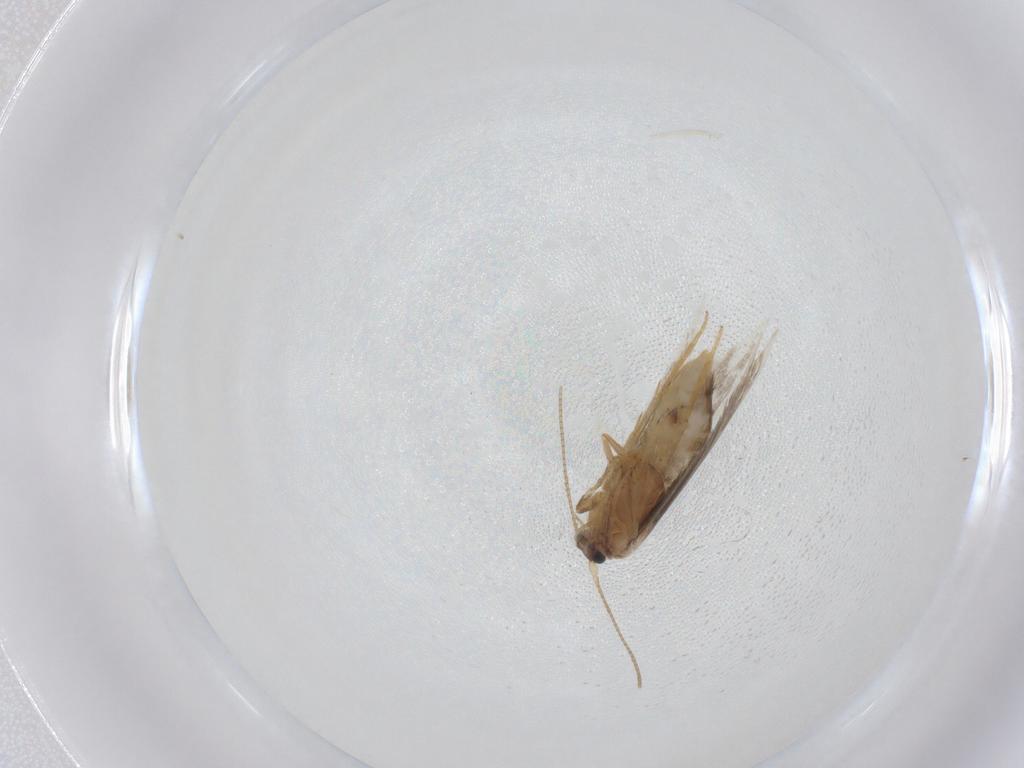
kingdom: Animalia
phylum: Arthropoda
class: Insecta
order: Lepidoptera
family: Nepticulidae
